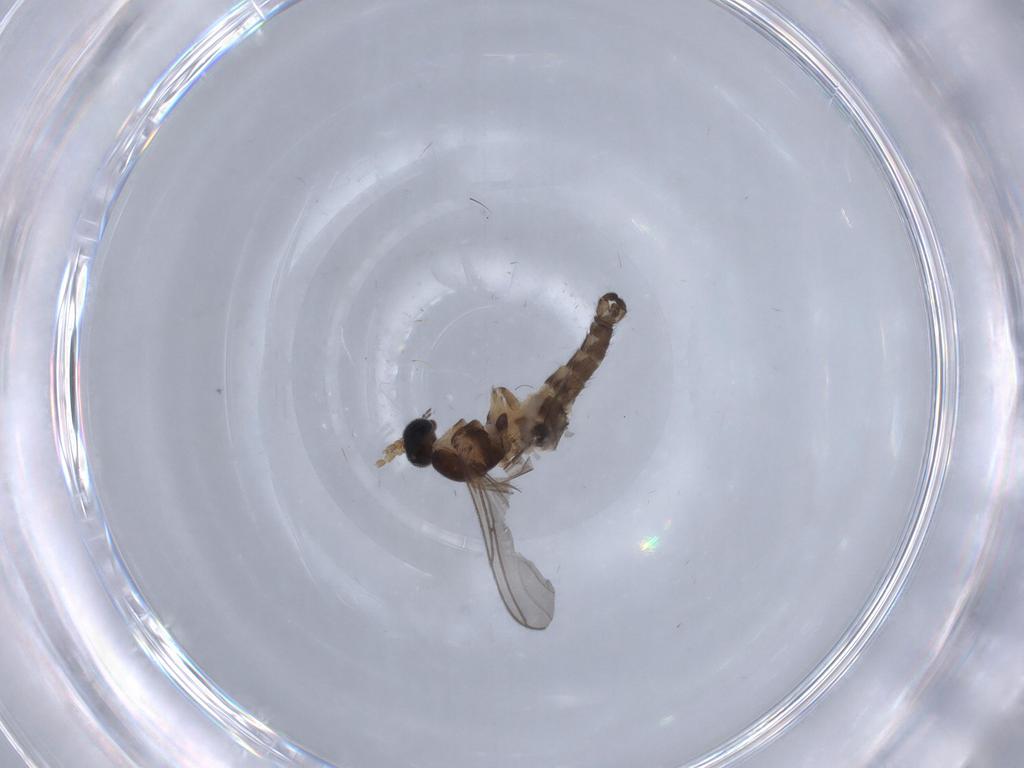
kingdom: Animalia
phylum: Arthropoda
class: Insecta
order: Diptera
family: Sciaridae
